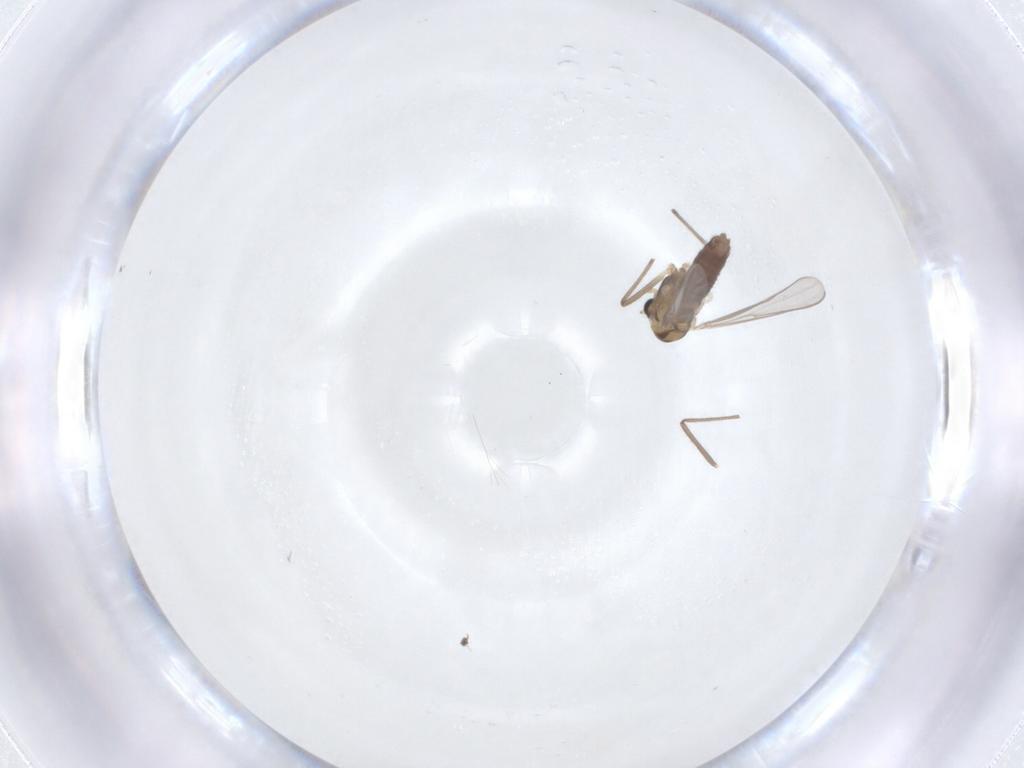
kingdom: Animalia
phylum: Arthropoda
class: Insecta
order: Diptera
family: Chironomidae
